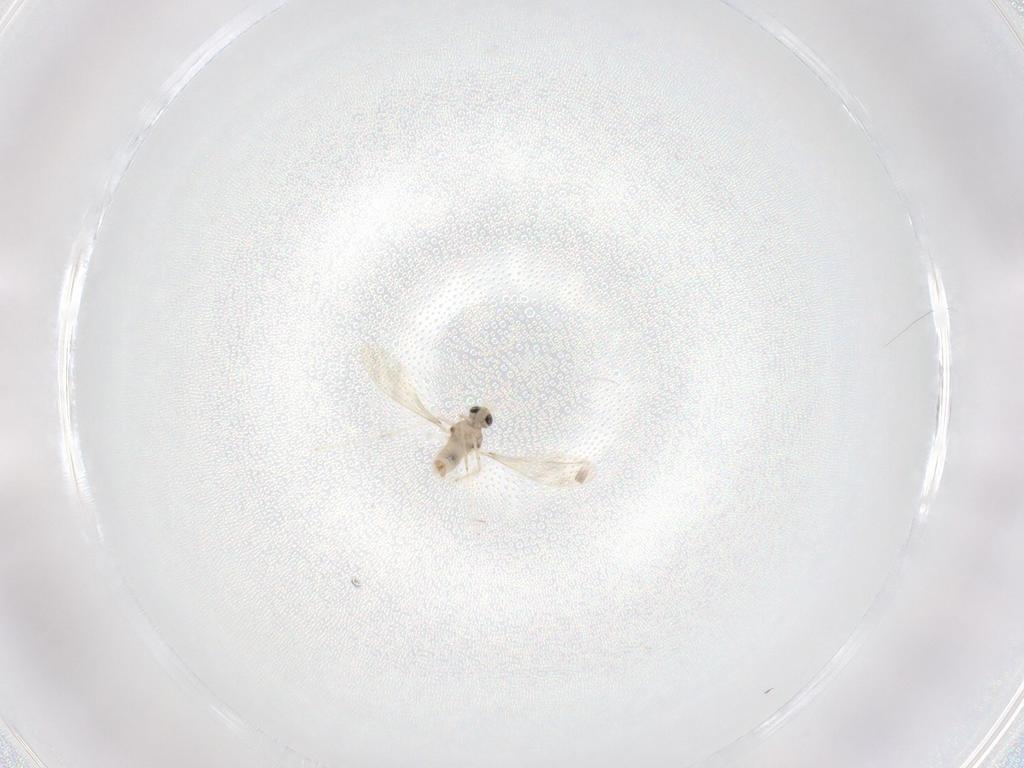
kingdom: Animalia
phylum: Arthropoda
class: Insecta
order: Diptera
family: Cecidomyiidae
